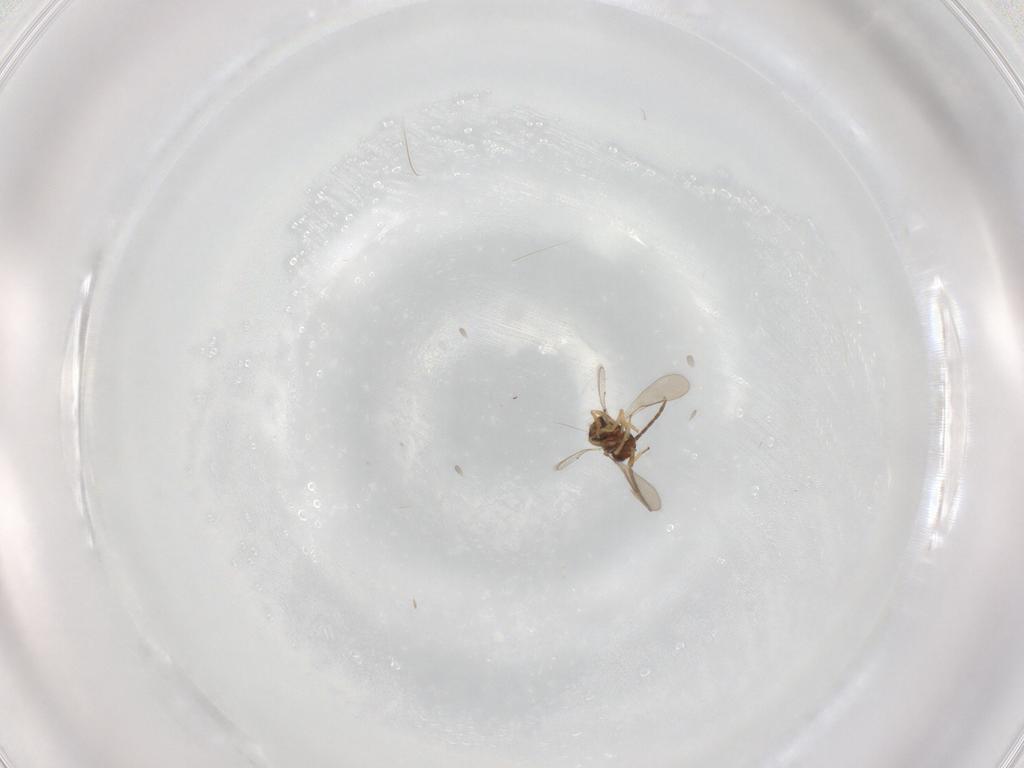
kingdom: Animalia
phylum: Arthropoda
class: Insecta
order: Hymenoptera
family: Aphelinidae
